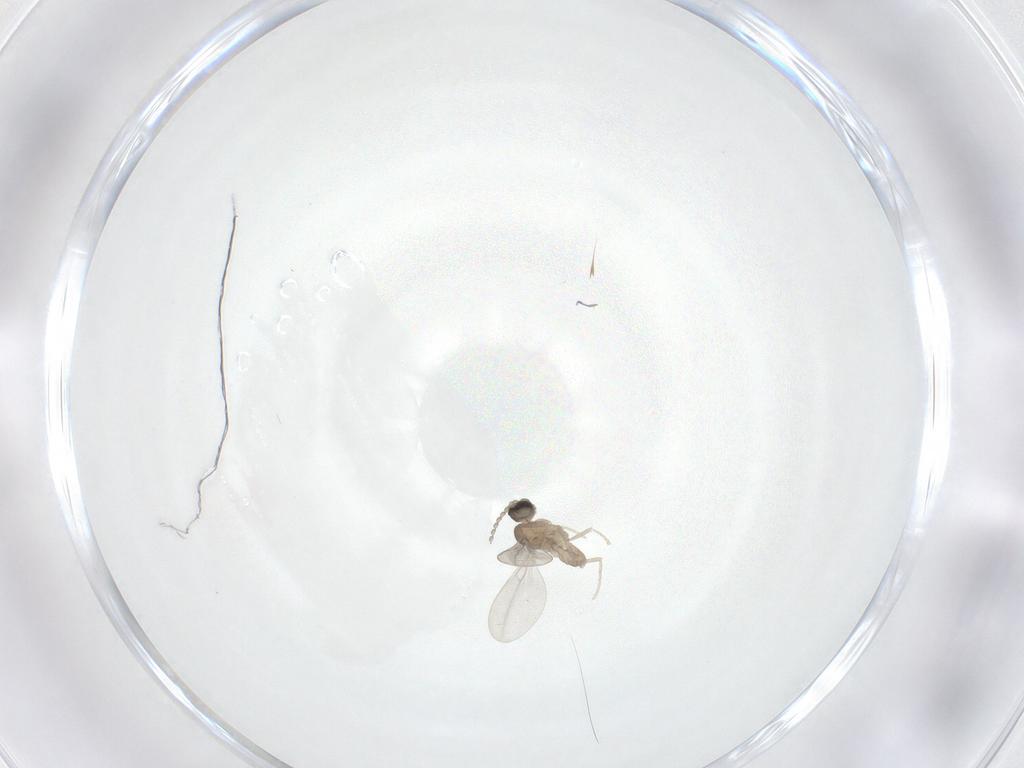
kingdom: Animalia
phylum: Arthropoda
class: Insecta
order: Diptera
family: Cecidomyiidae
